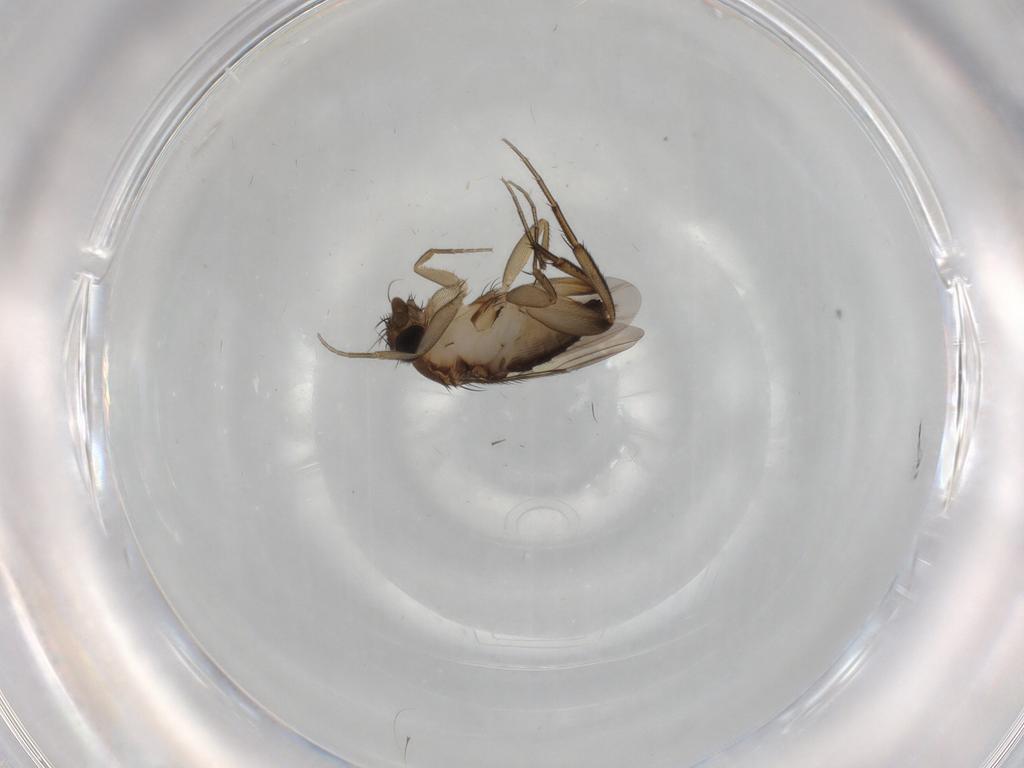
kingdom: Animalia
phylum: Arthropoda
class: Insecta
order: Diptera
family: Phoridae
